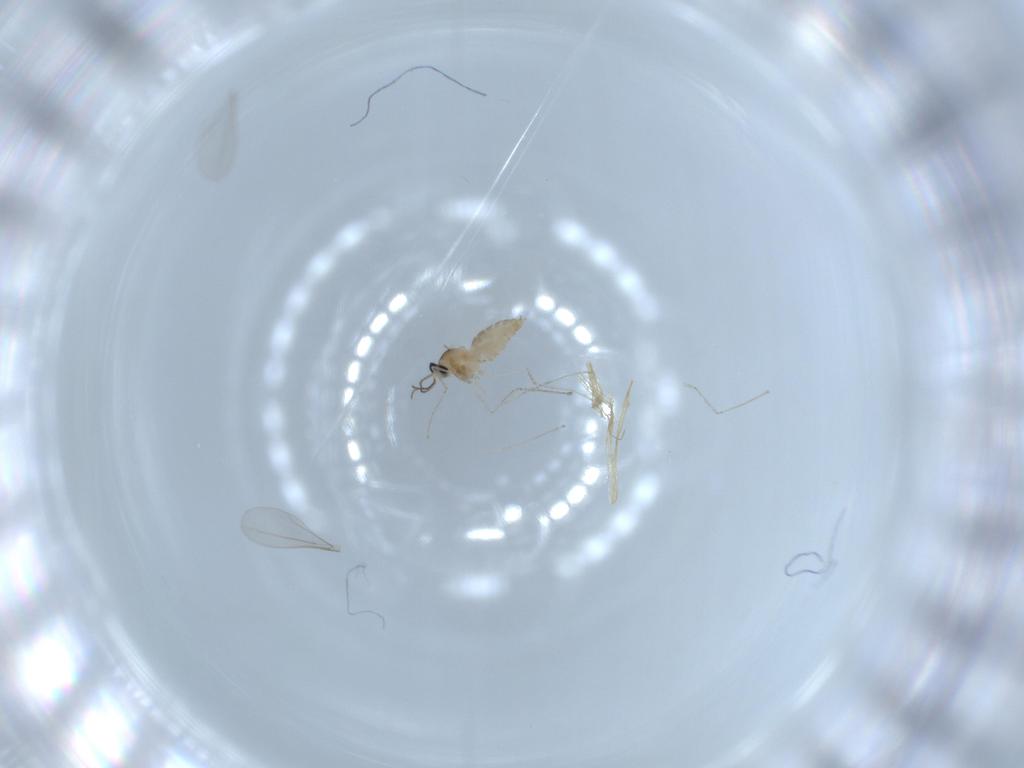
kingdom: Animalia
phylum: Arthropoda
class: Insecta
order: Diptera
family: Cecidomyiidae
